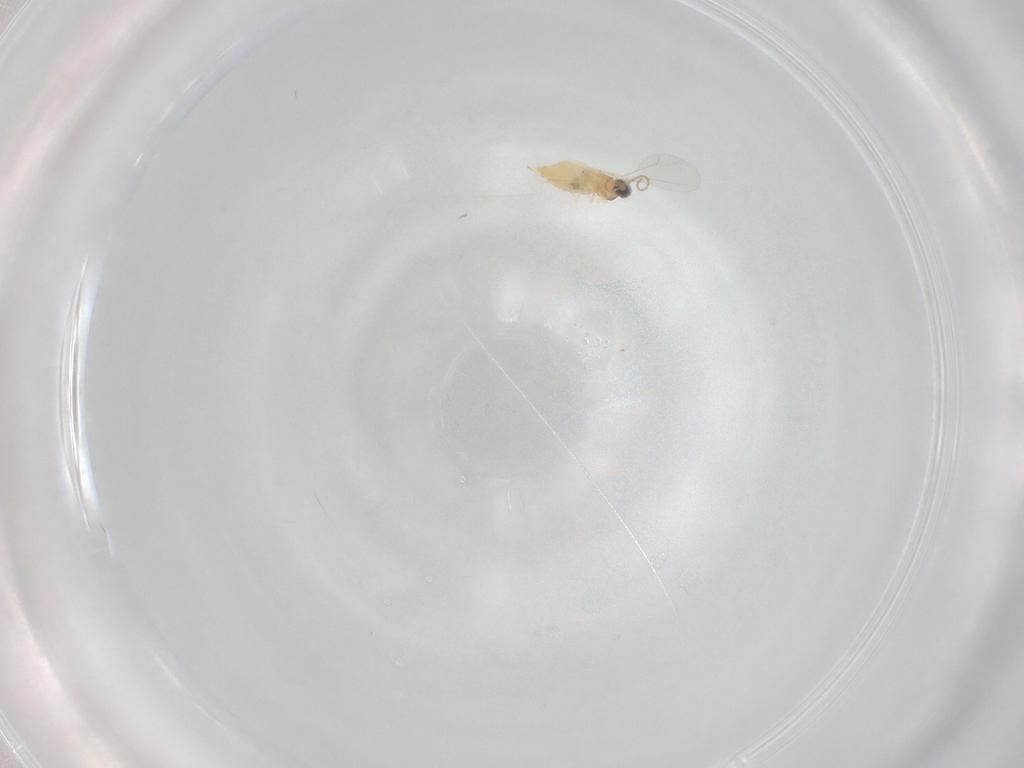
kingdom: Animalia
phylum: Arthropoda
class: Insecta
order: Diptera
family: Cecidomyiidae
